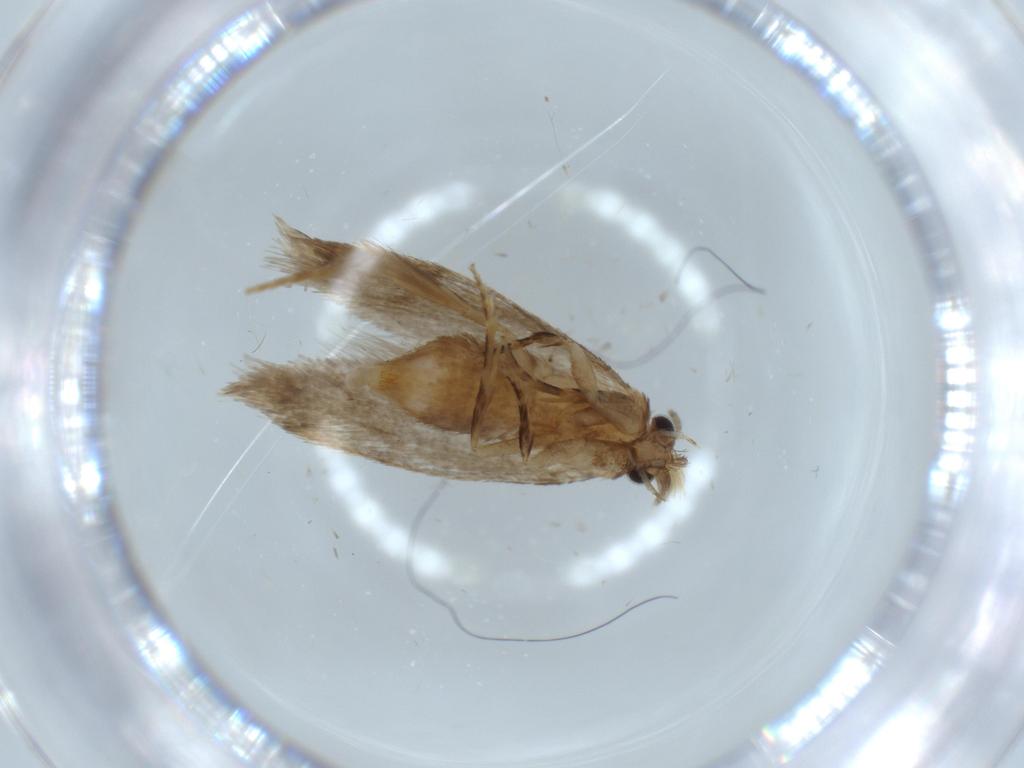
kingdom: Animalia
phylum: Arthropoda
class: Insecta
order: Lepidoptera
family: Tineidae
